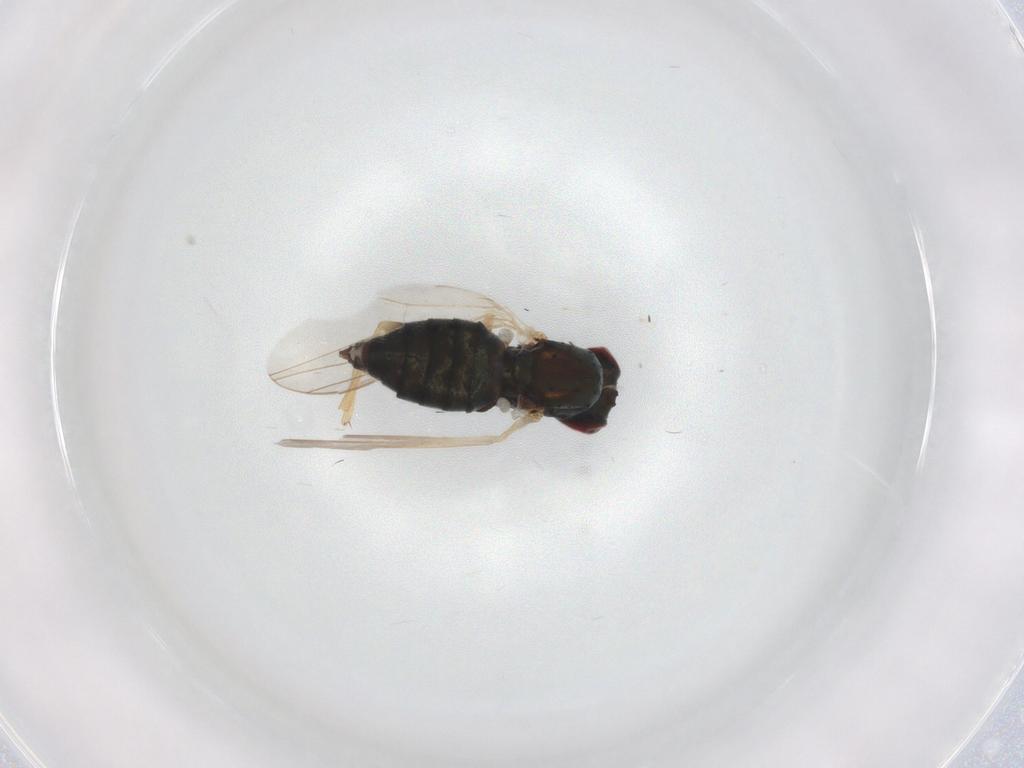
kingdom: Animalia
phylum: Arthropoda
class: Insecta
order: Diptera
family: Dolichopodidae
